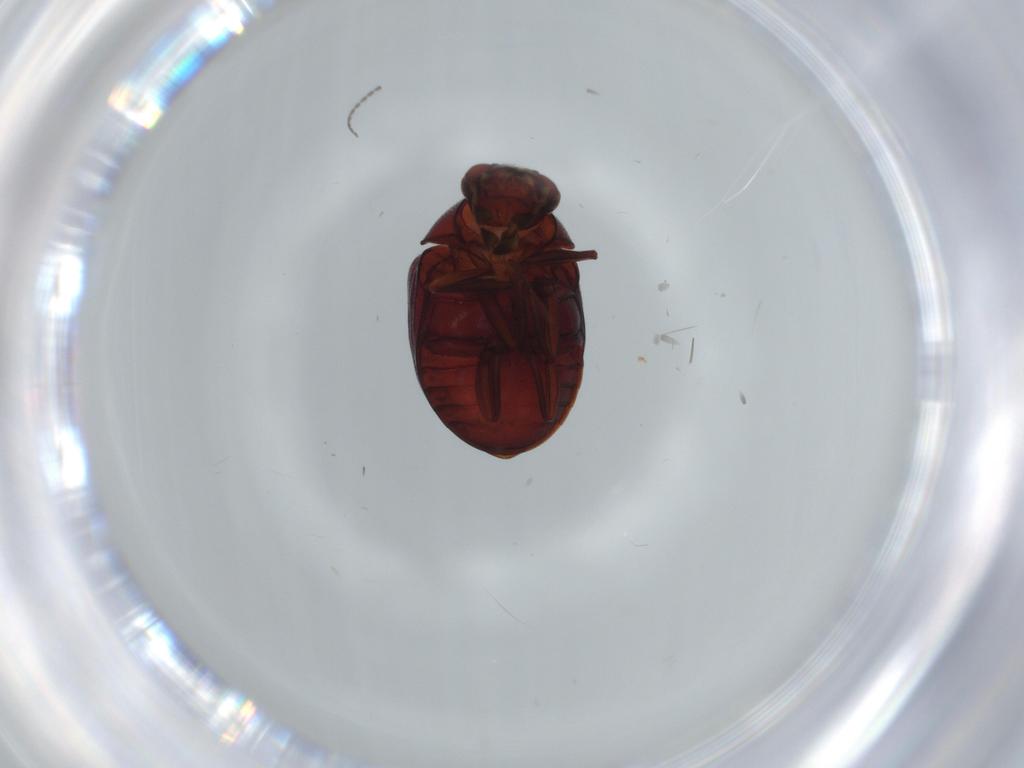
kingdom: Animalia
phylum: Arthropoda
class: Insecta
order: Coleoptera
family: Ptinidae
